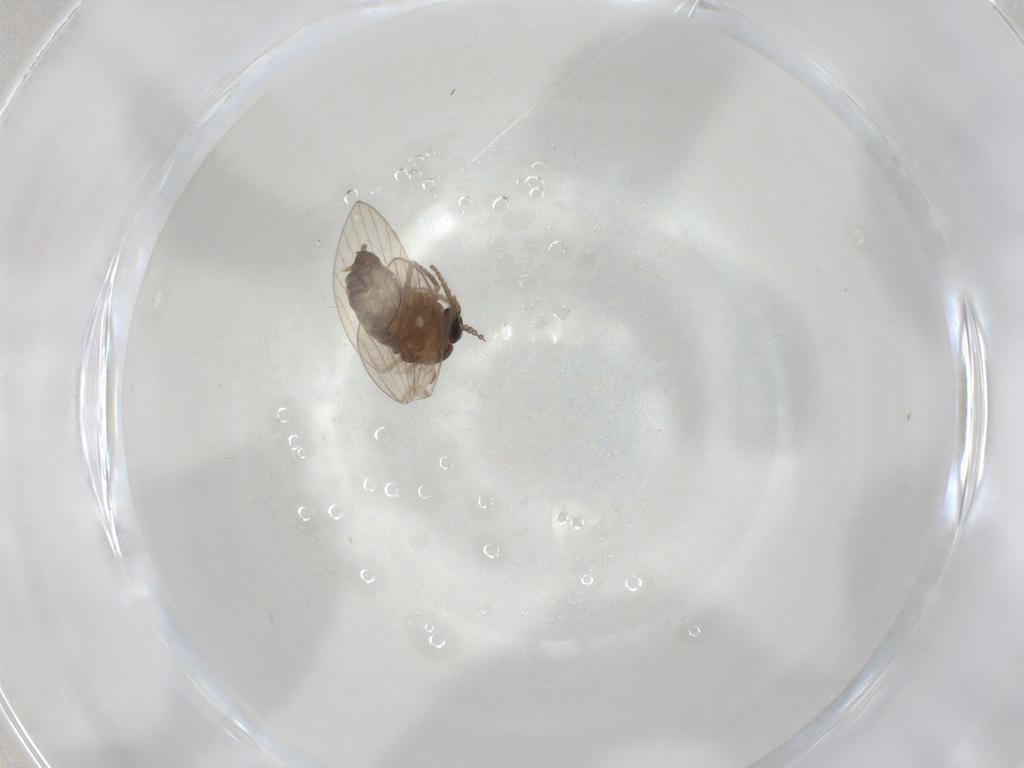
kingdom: Animalia
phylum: Arthropoda
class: Insecta
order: Diptera
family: Psychodidae
